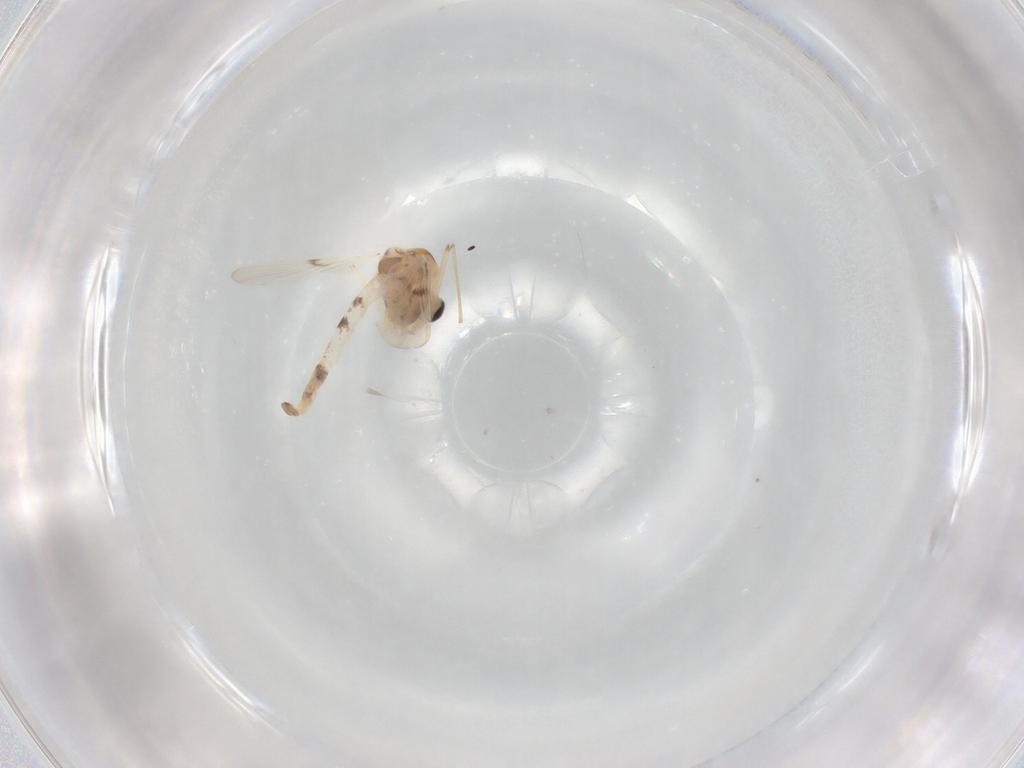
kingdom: Animalia
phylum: Arthropoda
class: Insecta
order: Diptera
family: Chironomidae
